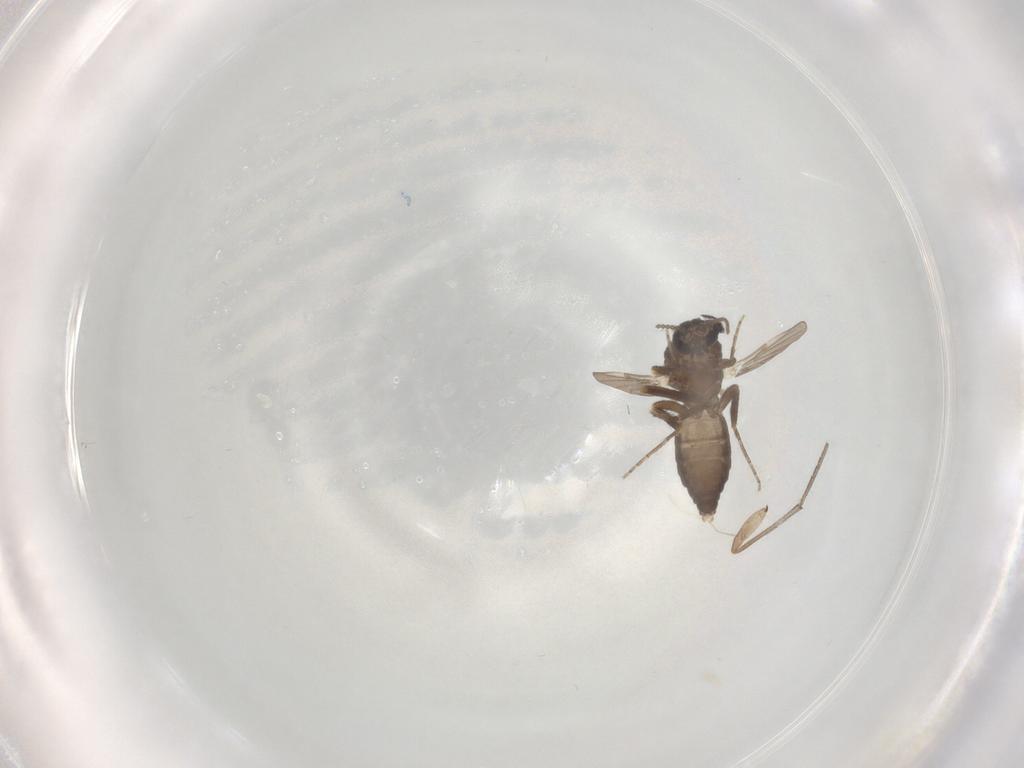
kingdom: Animalia
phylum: Arthropoda
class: Insecta
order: Diptera
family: Ceratopogonidae
